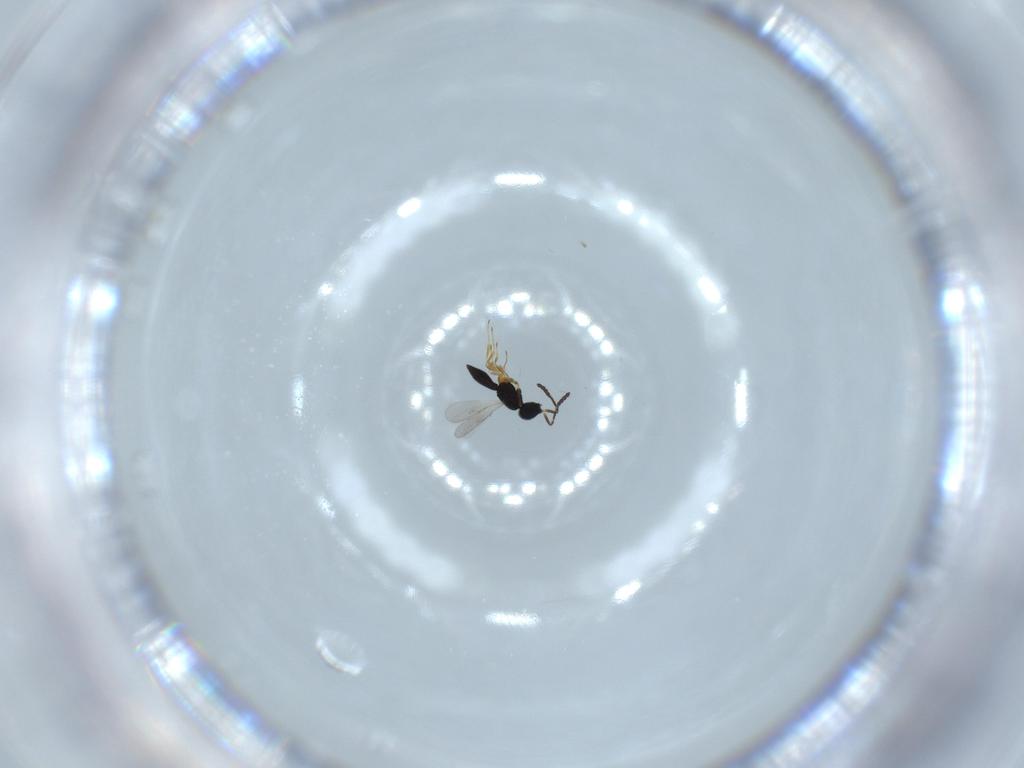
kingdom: Animalia
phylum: Arthropoda
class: Insecta
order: Hymenoptera
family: Scelionidae
